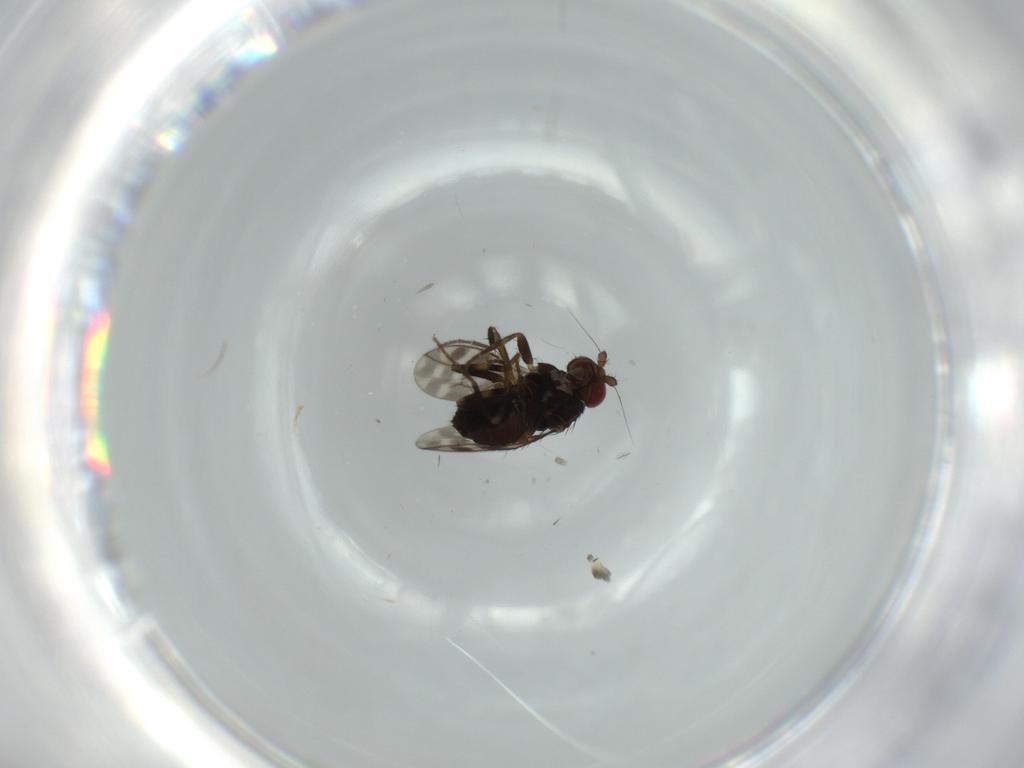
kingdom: Animalia
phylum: Arthropoda
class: Insecta
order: Diptera
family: Sphaeroceridae
